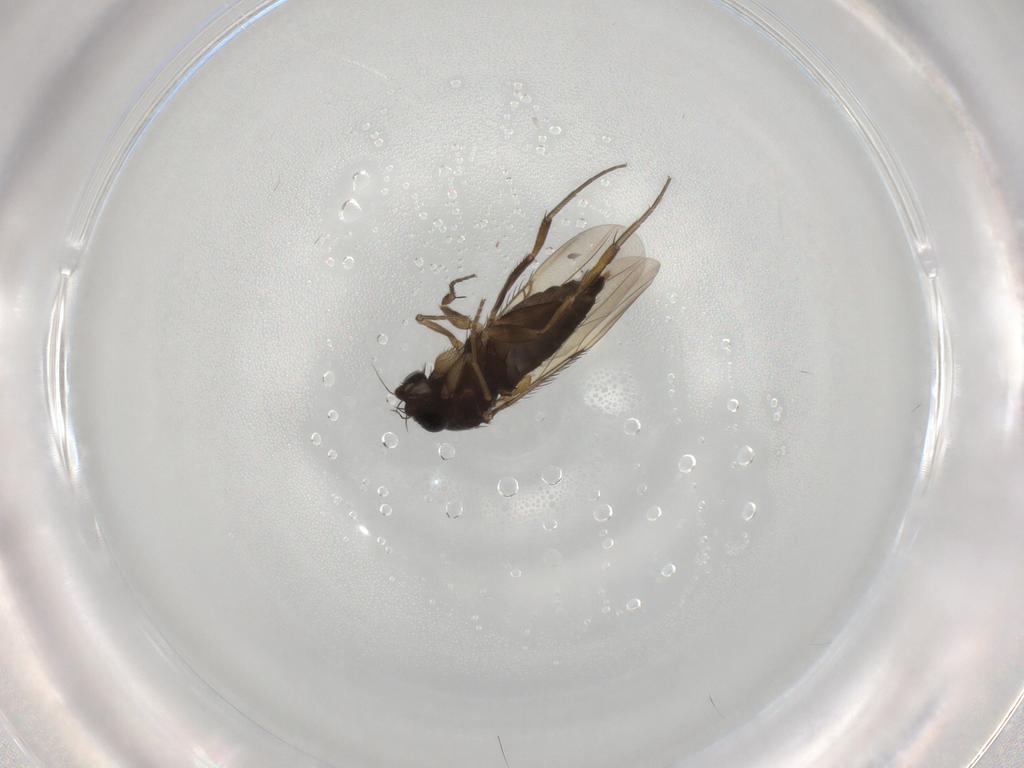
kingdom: Animalia
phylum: Arthropoda
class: Insecta
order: Diptera
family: Phoridae
